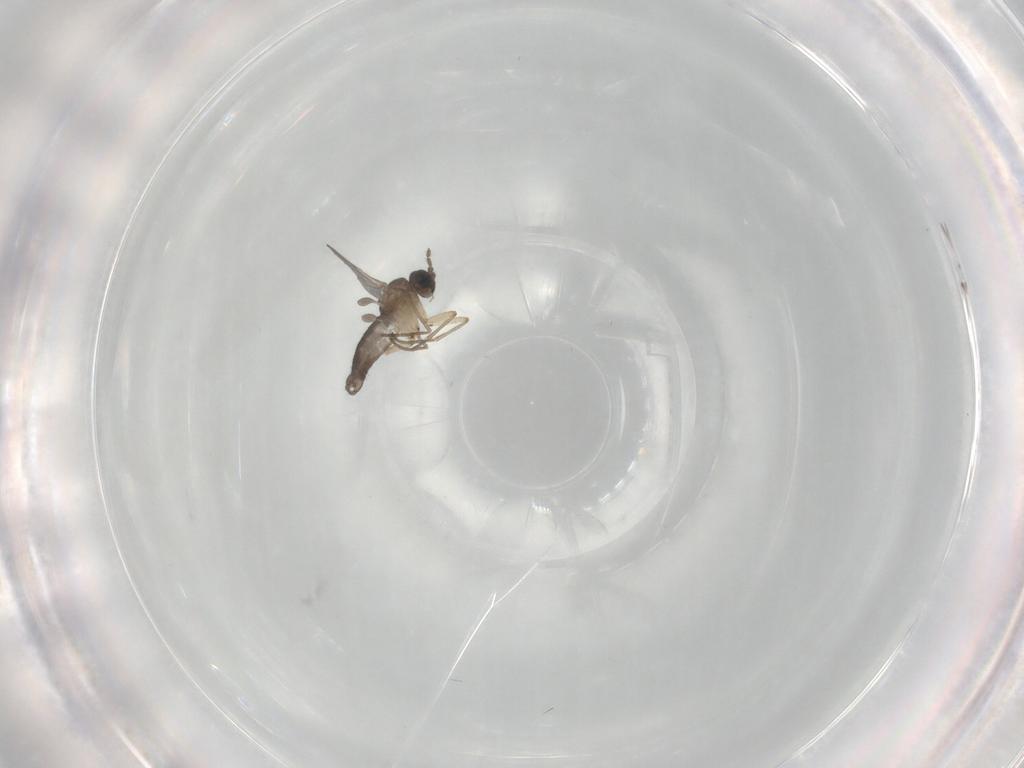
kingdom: Animalia
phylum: Arthropoda
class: Insecta
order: Diptera
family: Sciaridae
